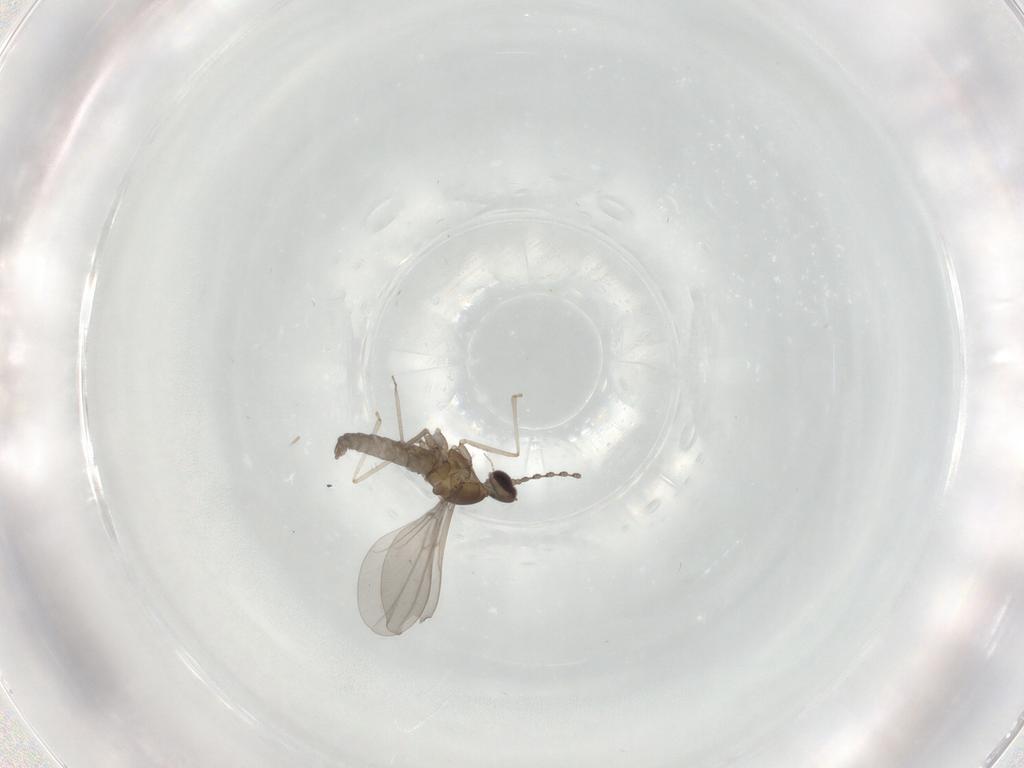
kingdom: Animalia
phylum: Arthropoda
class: Insecta
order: Diptera
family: Cecidomyiidae
